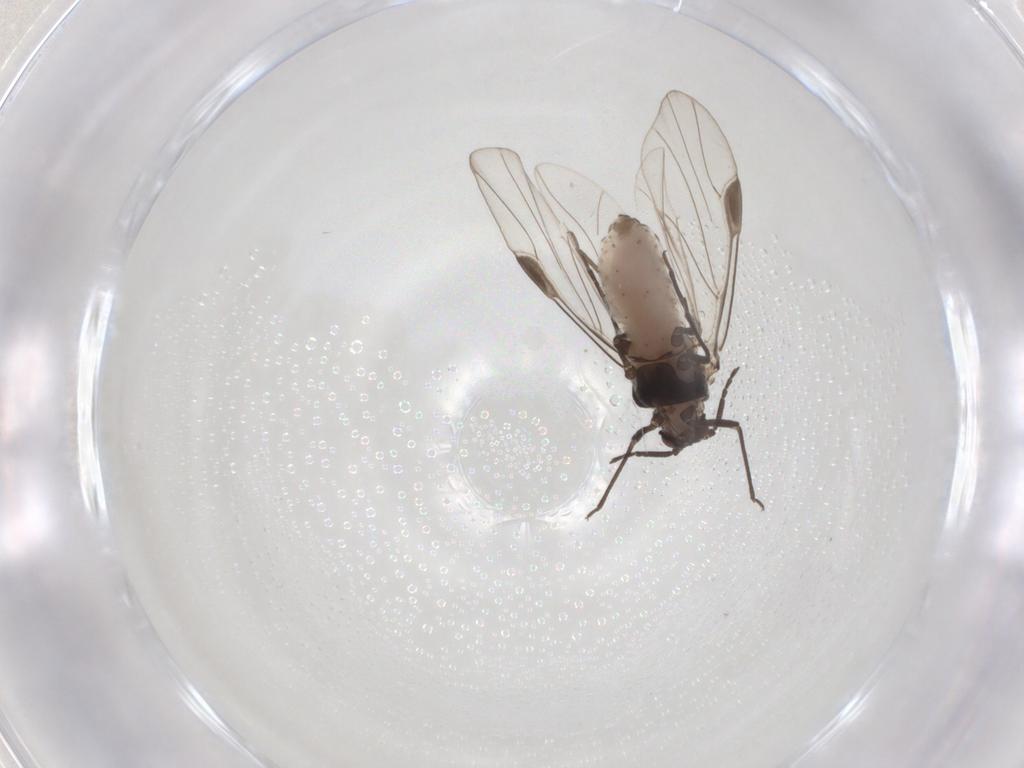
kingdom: Animalia
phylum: Arthropoda
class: Insecta
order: Hemiptera
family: Aphididae
